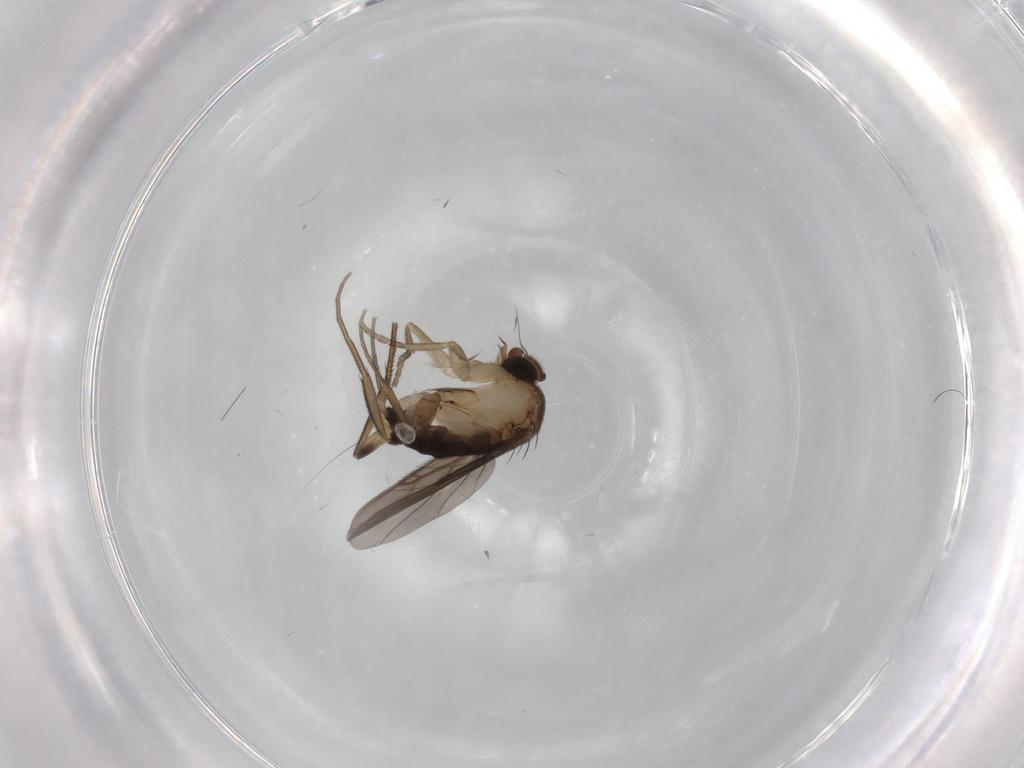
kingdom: Animalia
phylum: Arthropoda
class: Insecta
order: Diptera
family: Phoridae
